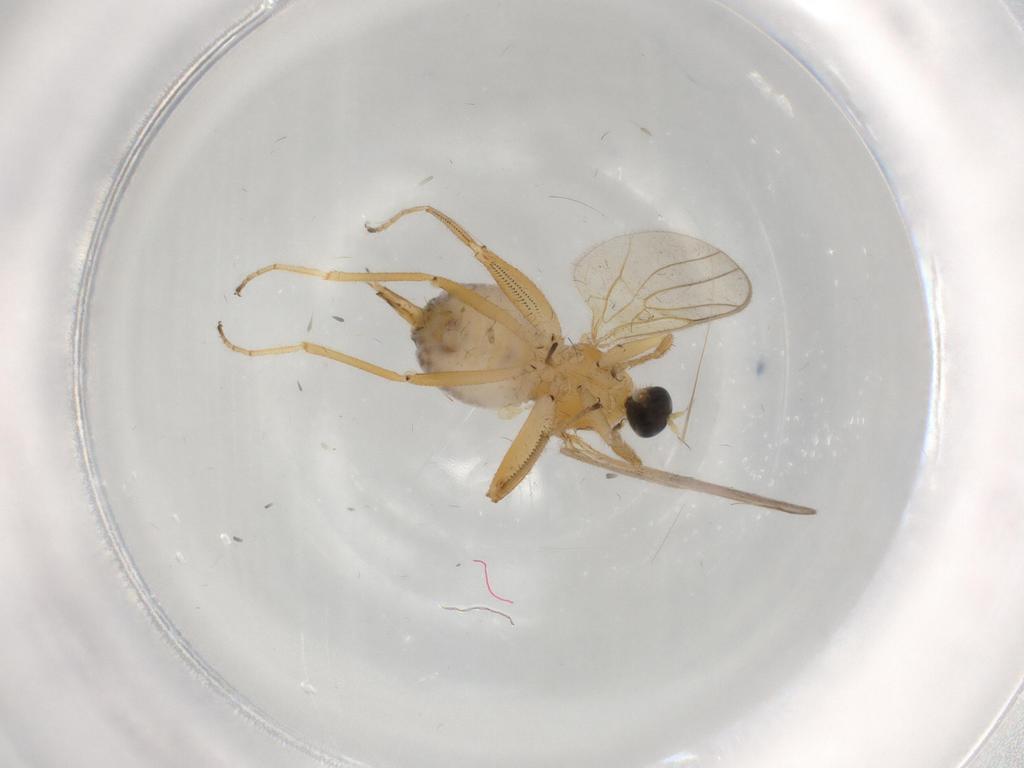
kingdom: Animalia
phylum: Arthropoda
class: Insecta
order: Diptera
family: Hybotidae
